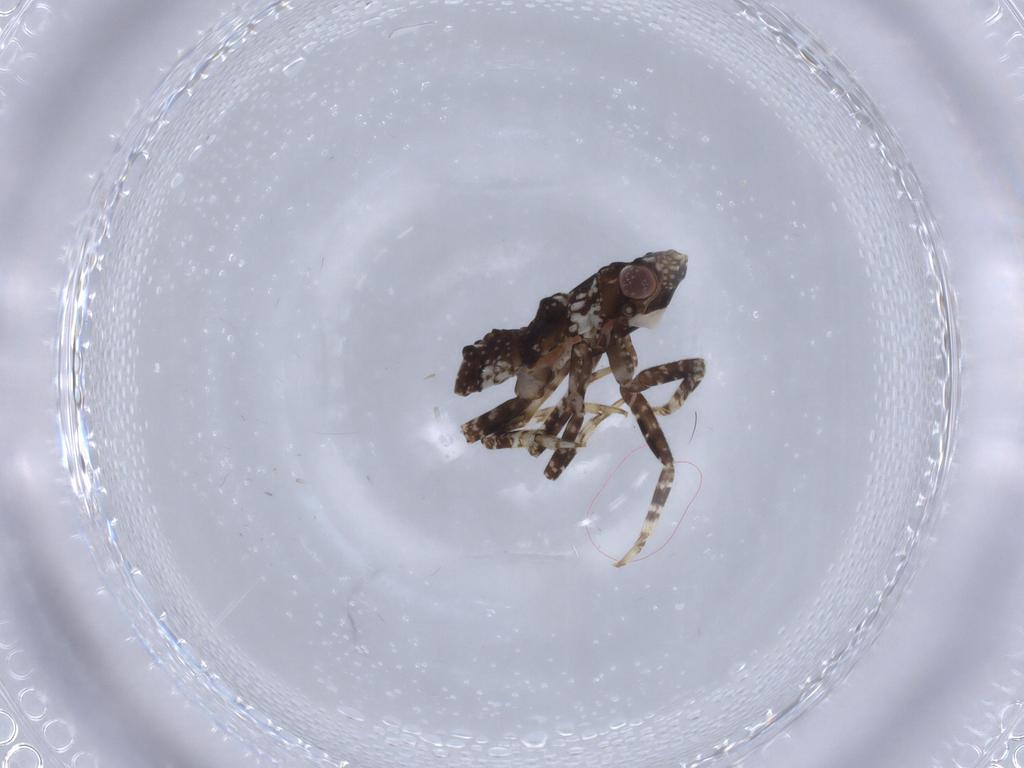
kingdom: Animalia
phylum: Arthropoda
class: Insecta
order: Hemiptera
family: Fulgoridae
